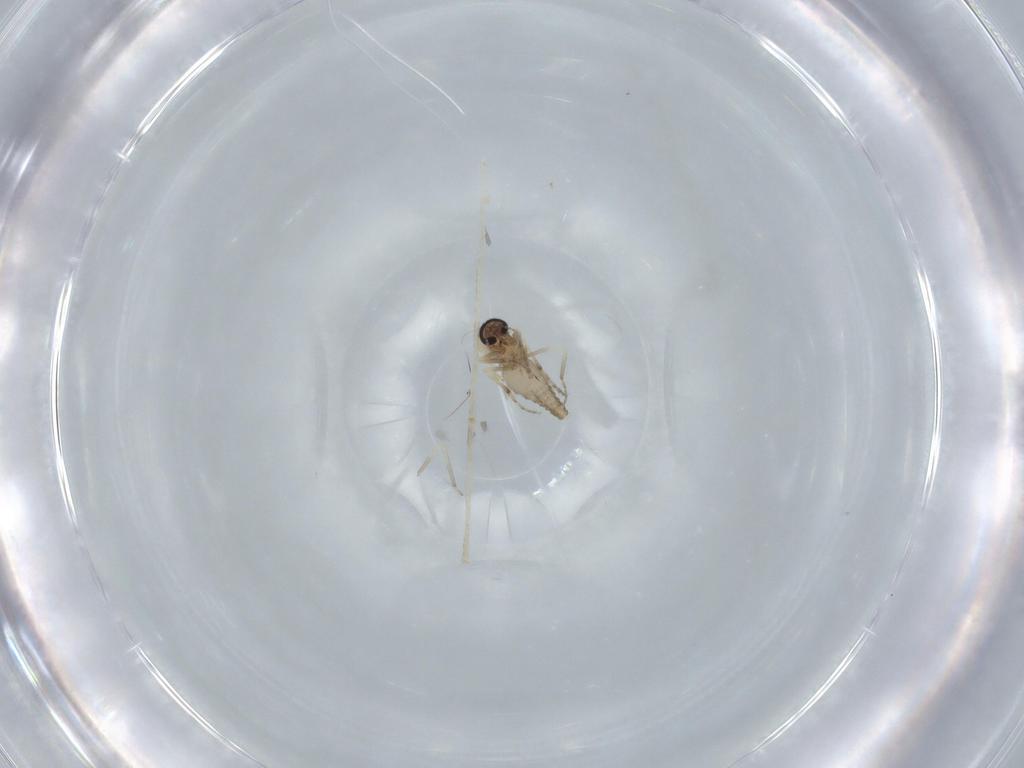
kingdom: Animalia
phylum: Arthropoda
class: Insecta
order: Diptera
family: Ceratopogonidae
